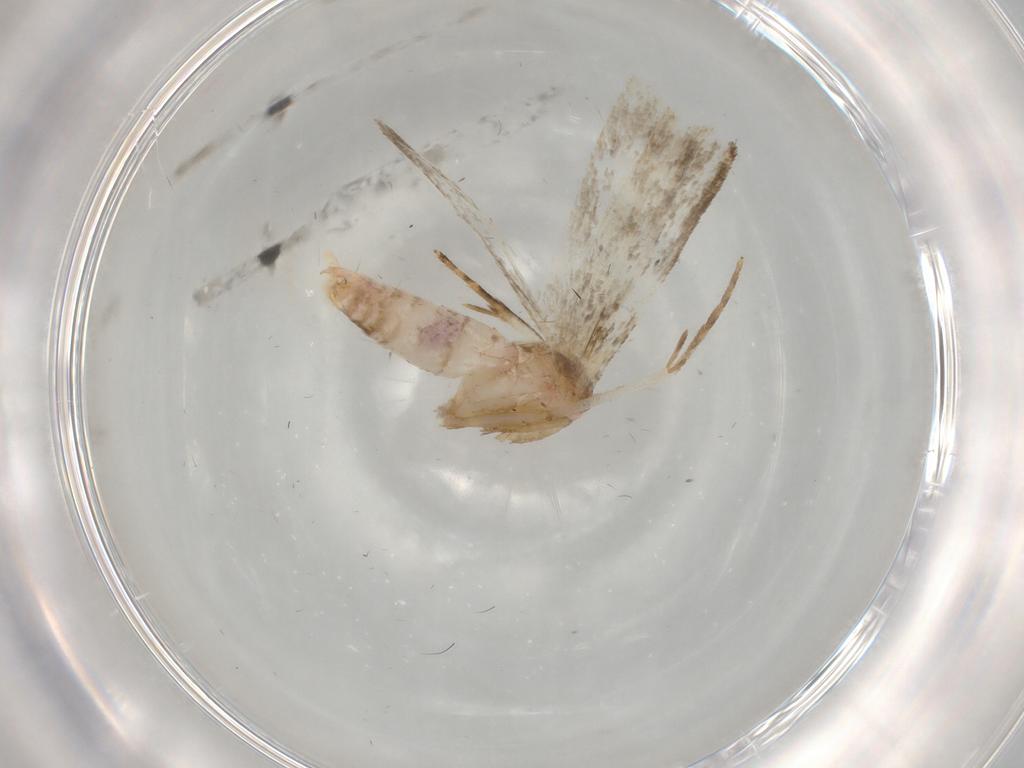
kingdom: Animalia
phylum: Arthropoda
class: Insecta
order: Lepidoptera
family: Gelechiidae
